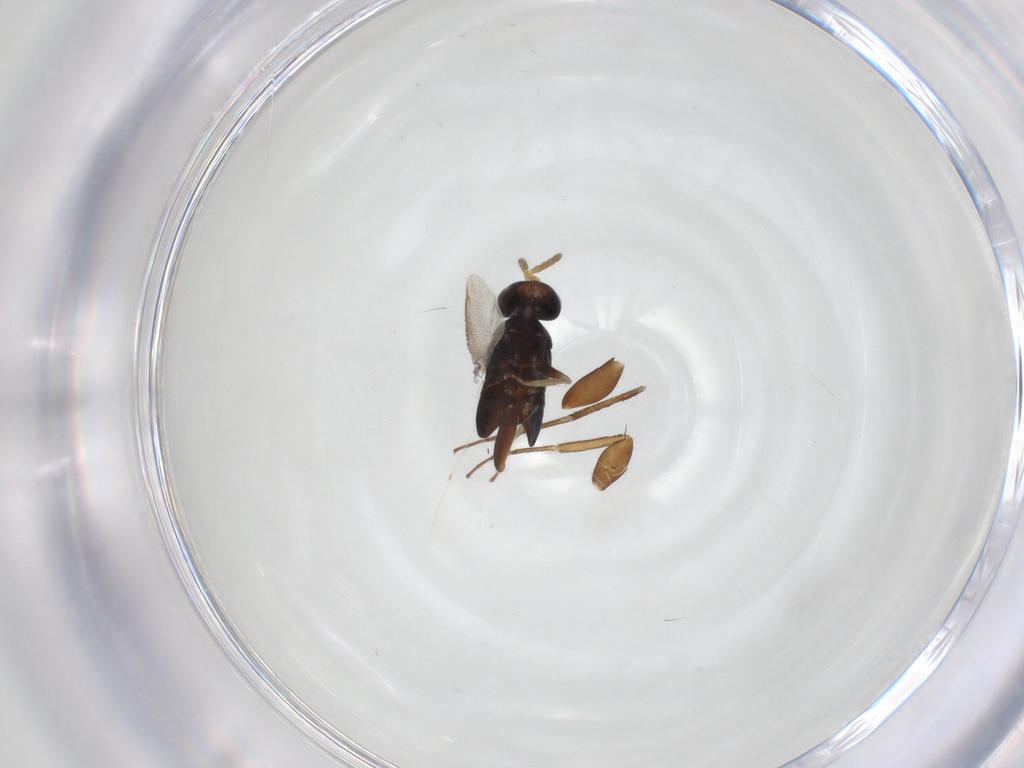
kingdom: Animalia
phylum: Arthropoda
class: Insecta
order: Hymenoptera
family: Eulophidae
